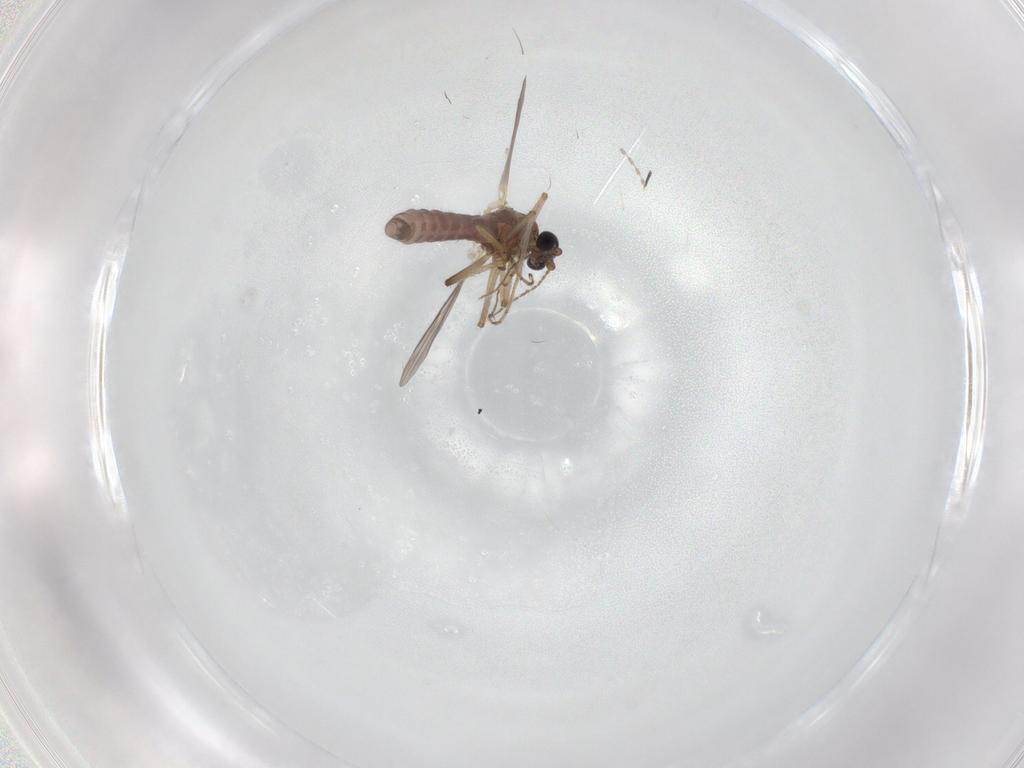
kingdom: Animalia
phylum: Arthropoda
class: Insecta
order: Diptera
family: Ceratopogonidae
